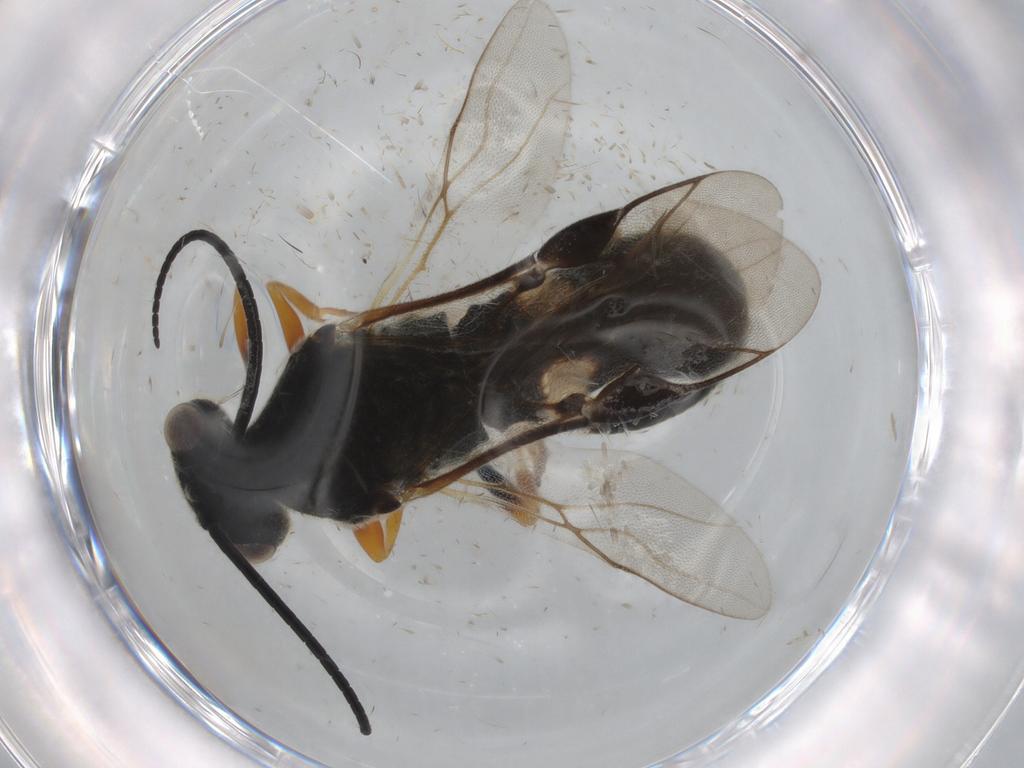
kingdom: Animalia
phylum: Arthropoda
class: Insecta
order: Hymenoptera
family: Braconidae
